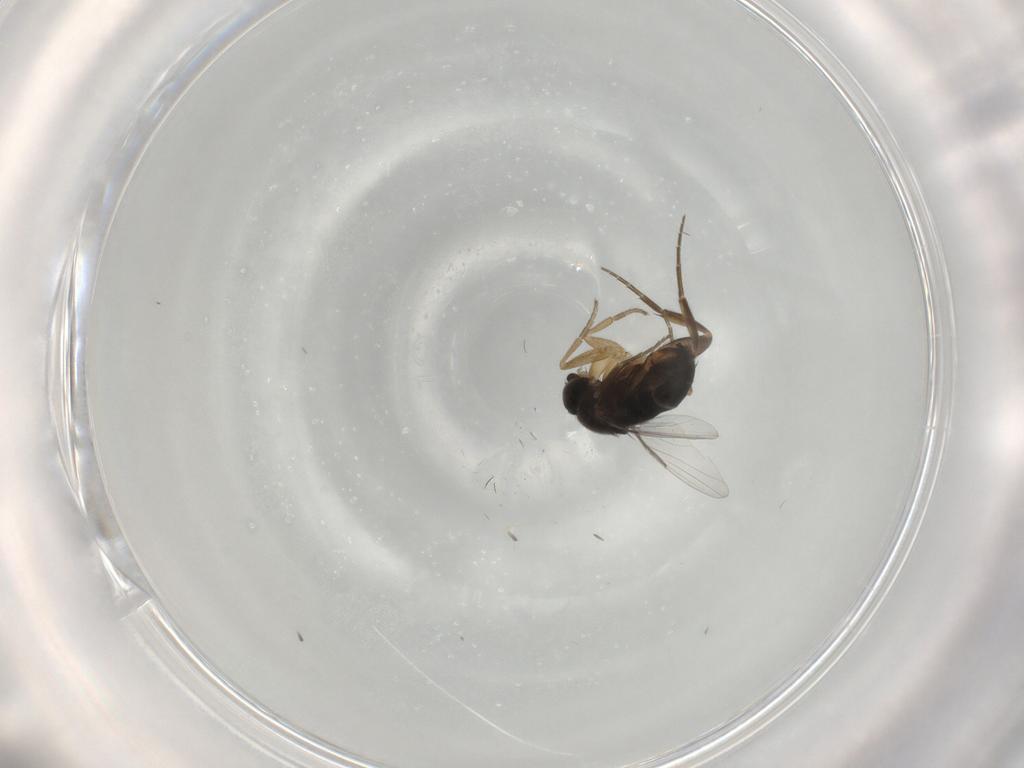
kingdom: Animalia
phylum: Arthropoda
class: Insecta
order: Diptera
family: Phoridae
